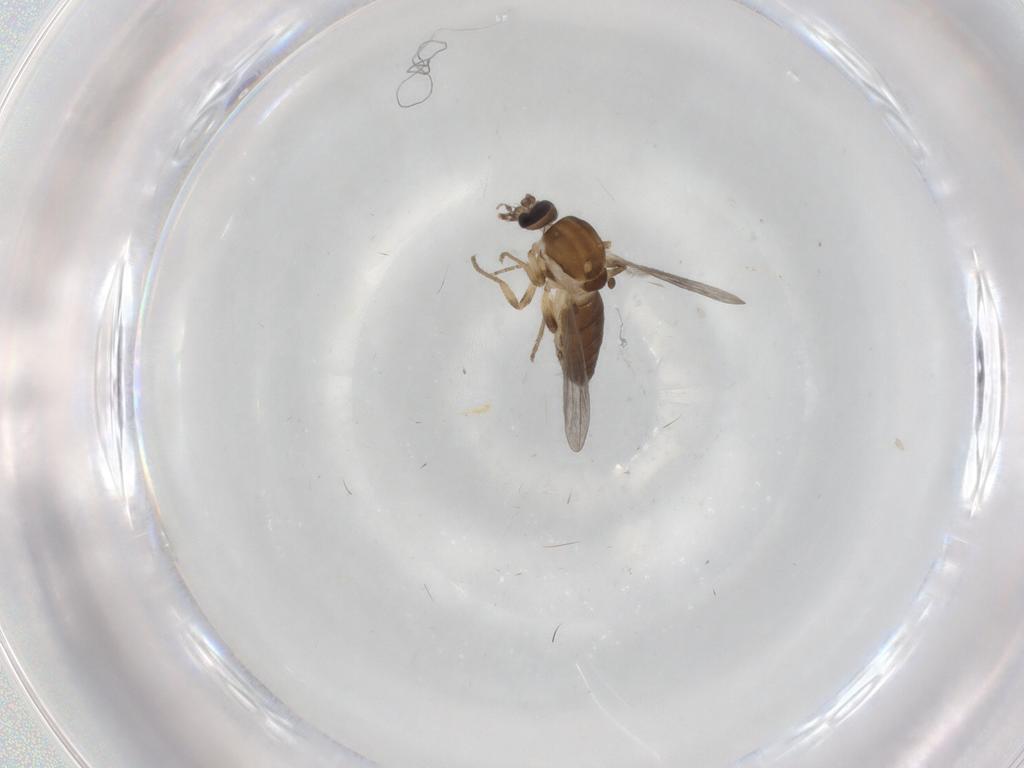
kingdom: Animalia
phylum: Arthropoda
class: Insecta
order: Diptera
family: Ceratopogonidae
